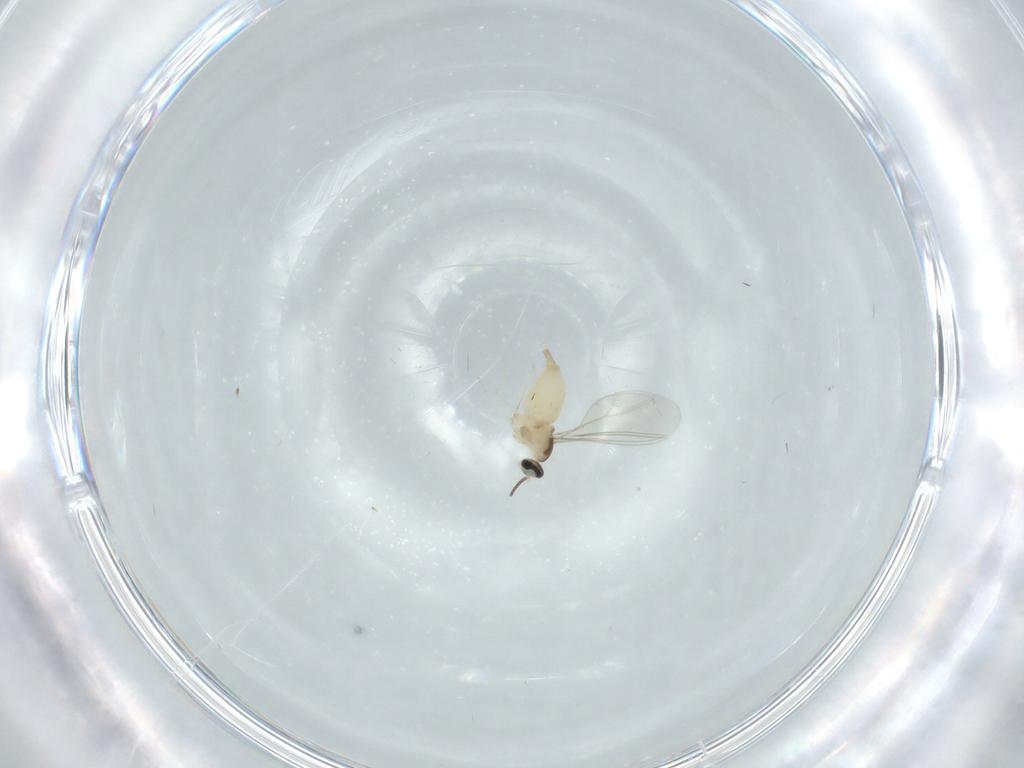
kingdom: Animalia
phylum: Arthropoda
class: Insecta
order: Diptera
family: Cecidomyiidae
